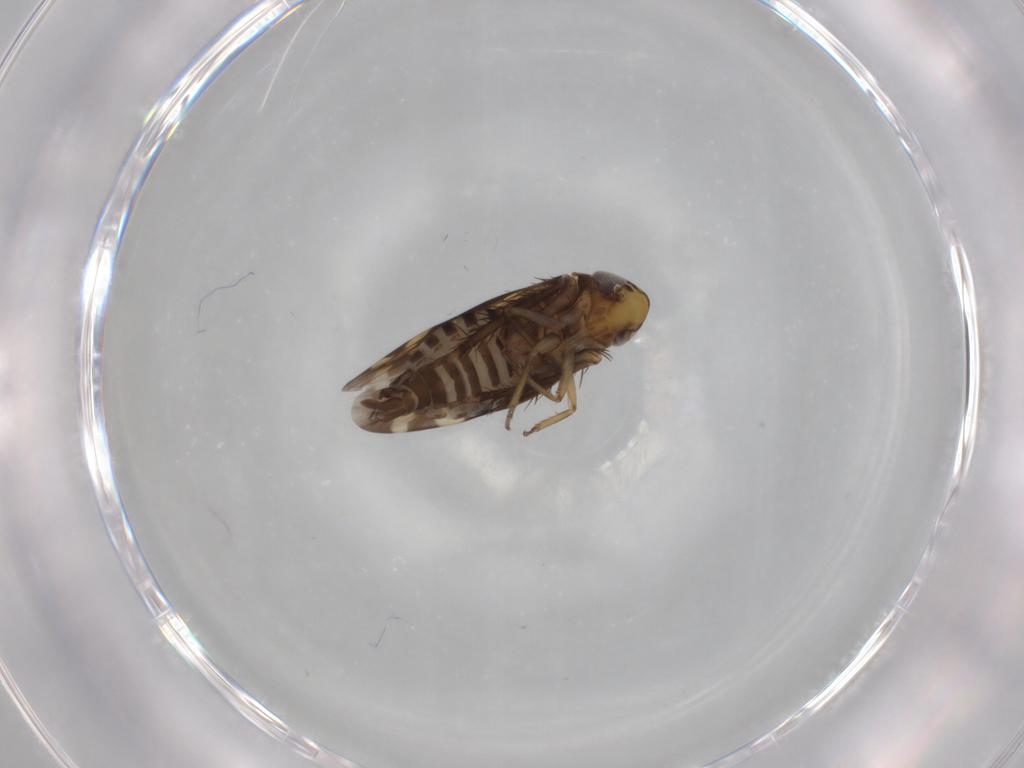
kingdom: Animalia
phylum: Arthropoda
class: Insecta
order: Hemiptera
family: Cicadellidae
